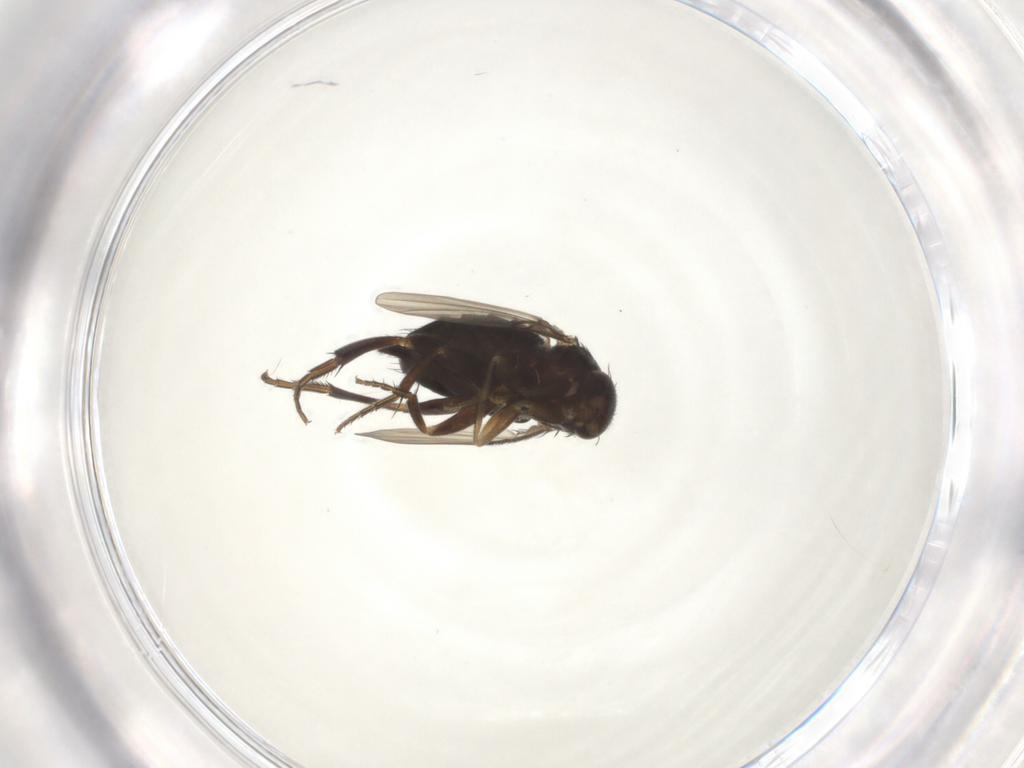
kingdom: Animalia
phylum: Arthropoda
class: Insecta
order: Diptera
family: Phoridae
